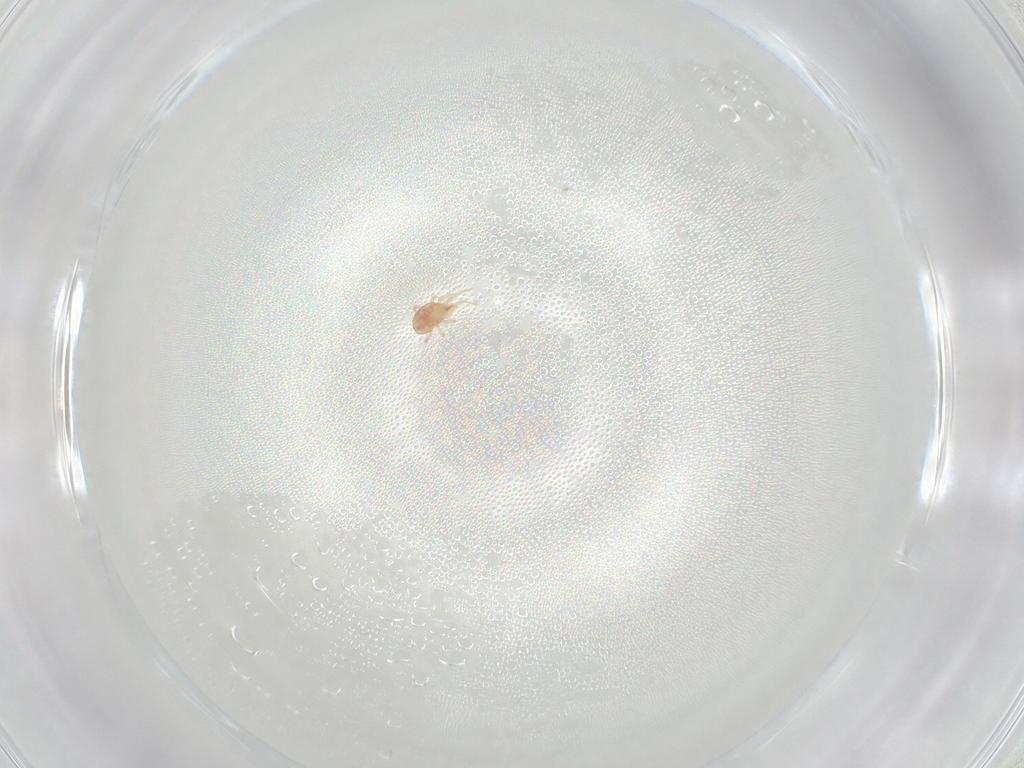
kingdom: Animalia
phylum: Arthropoda
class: Arachnida
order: Mesostigmata
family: Phytoseiidae
